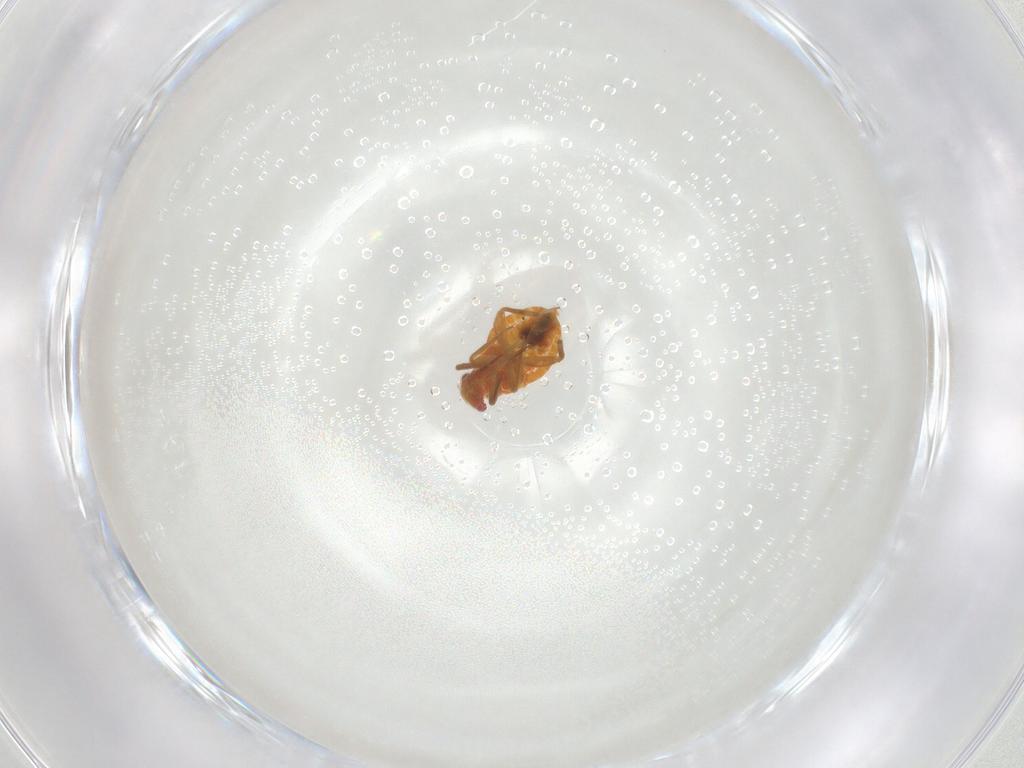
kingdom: Animalia
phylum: Arthropoda
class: Insecta
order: Hemiptera
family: Miridae
